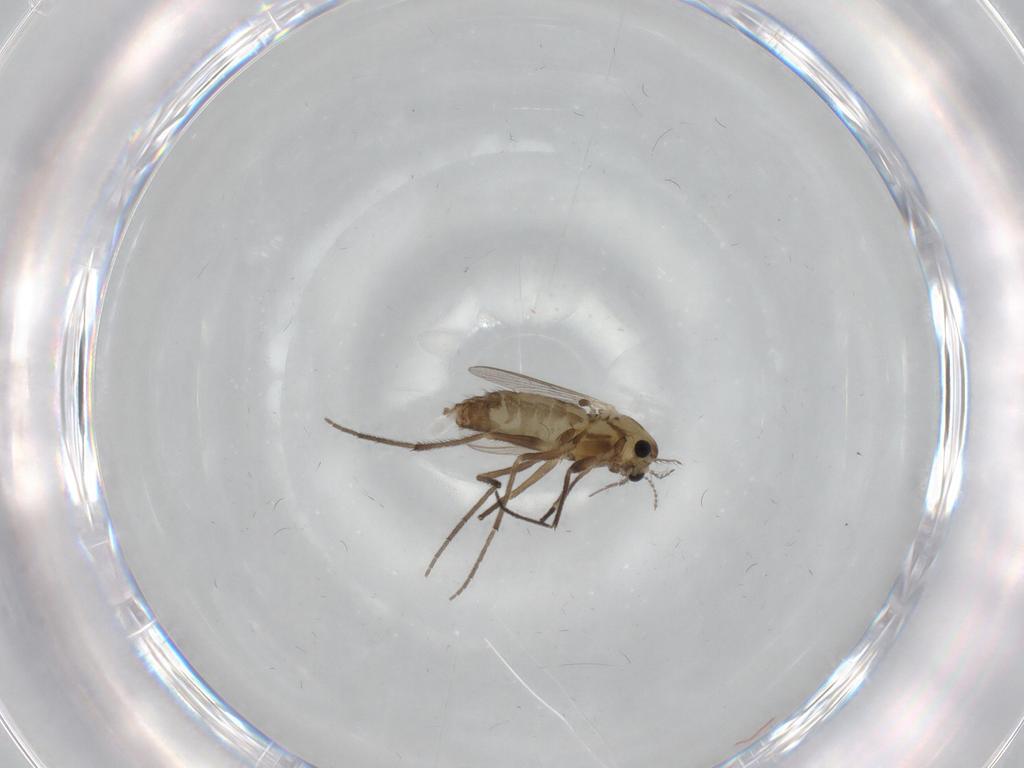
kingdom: Animalia
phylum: Arthropoda
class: Insecta
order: Diptera
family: Chironomidae
